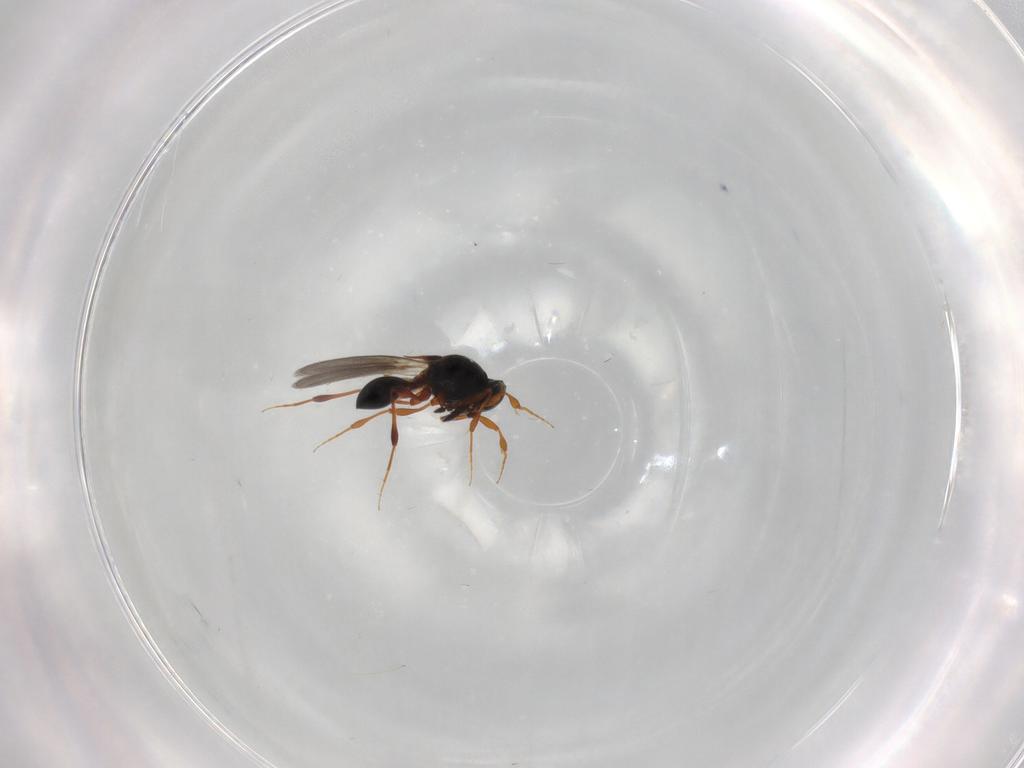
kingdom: Animalia
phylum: Arthropoda
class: Insecta
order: Hymenoptera
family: Platygastridae
